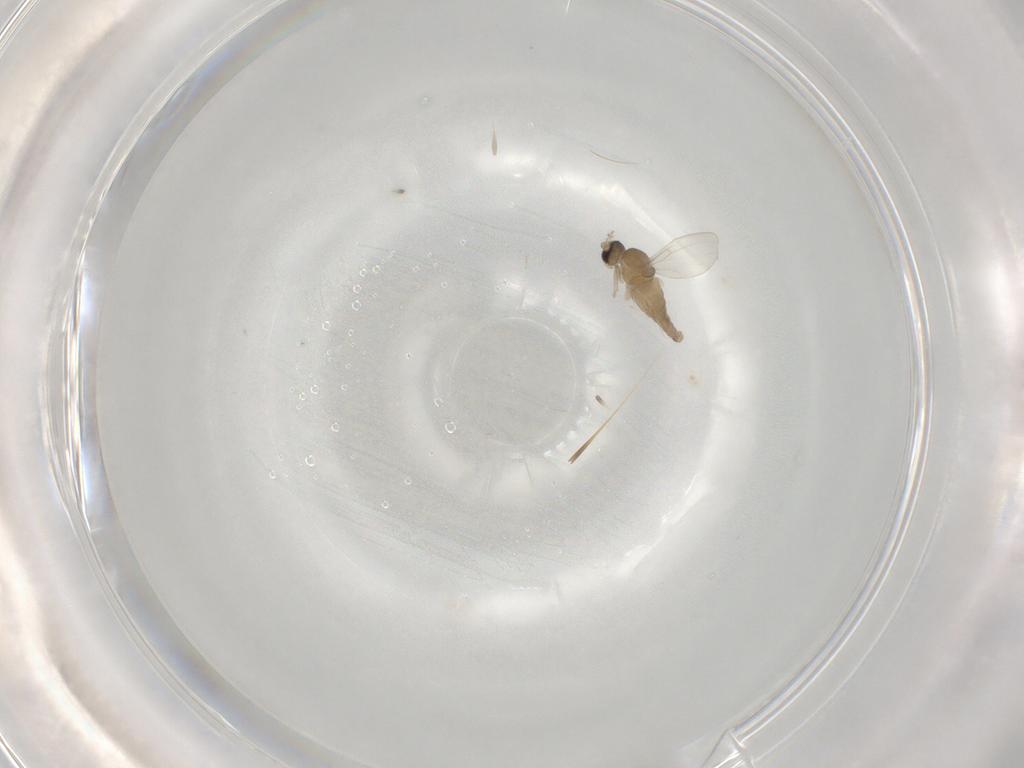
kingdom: Animalia
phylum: Arthropoda
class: Insecta
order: Diptera
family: Cecidomyiidae
